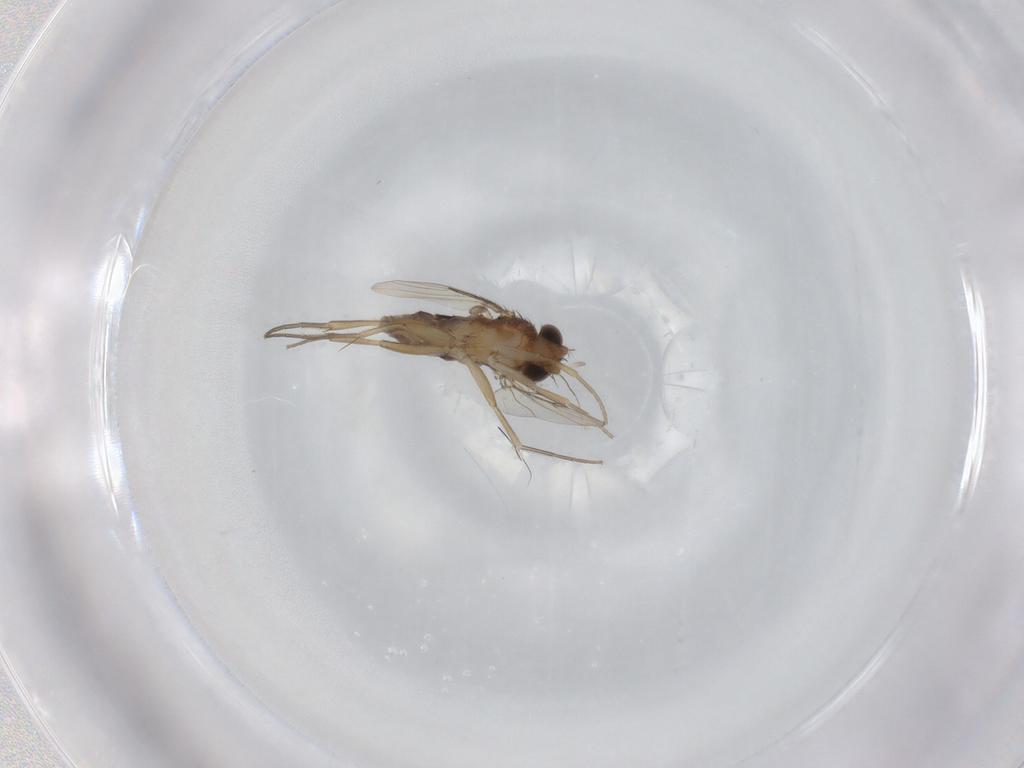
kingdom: Animalia
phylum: Arthropoda
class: Insecta
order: Diptera
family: Phoridae
